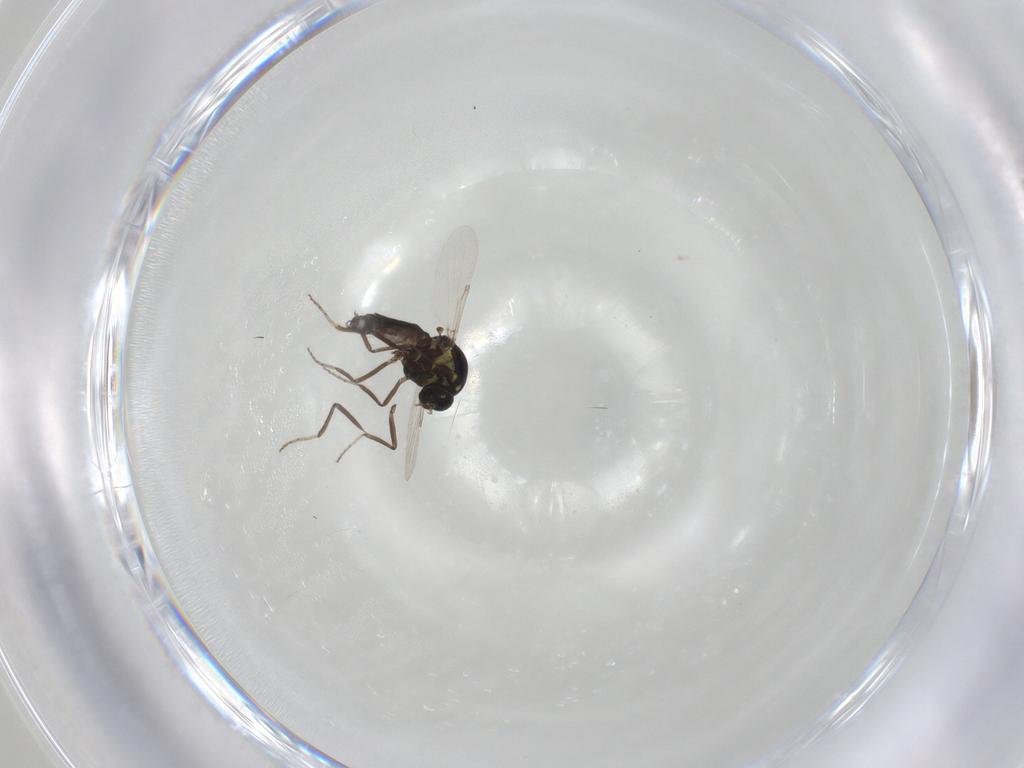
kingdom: Animalia
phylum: Arthropoda
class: Insecta
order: Diptera
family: Ceratopogonidae
